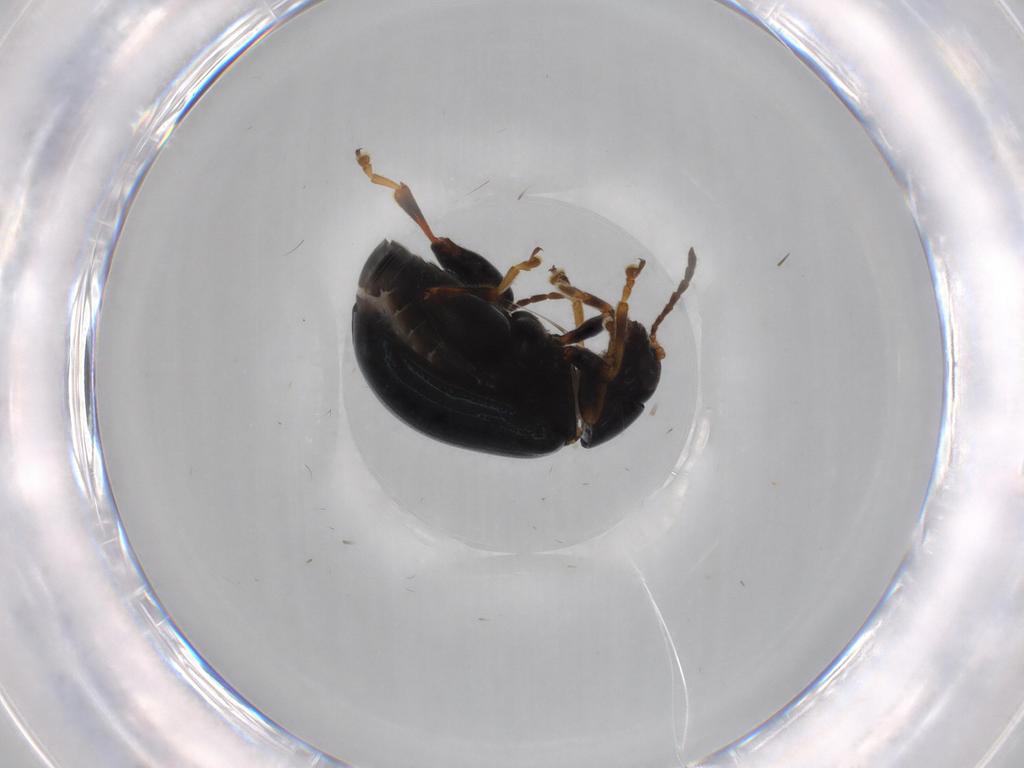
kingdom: Animalia
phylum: Arthropoda
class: Insecta
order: Coleoptera
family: Chrysomelidae
